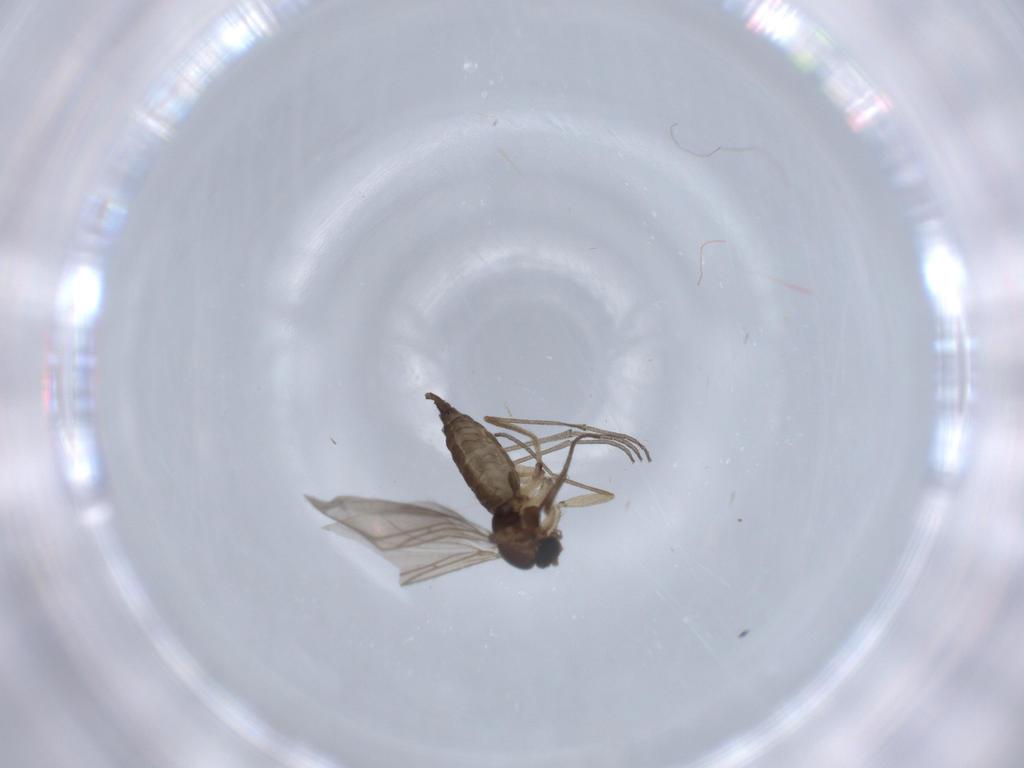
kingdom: Animalia
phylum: Arthropoda
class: Insecta
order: Diptera
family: Sciaridae
